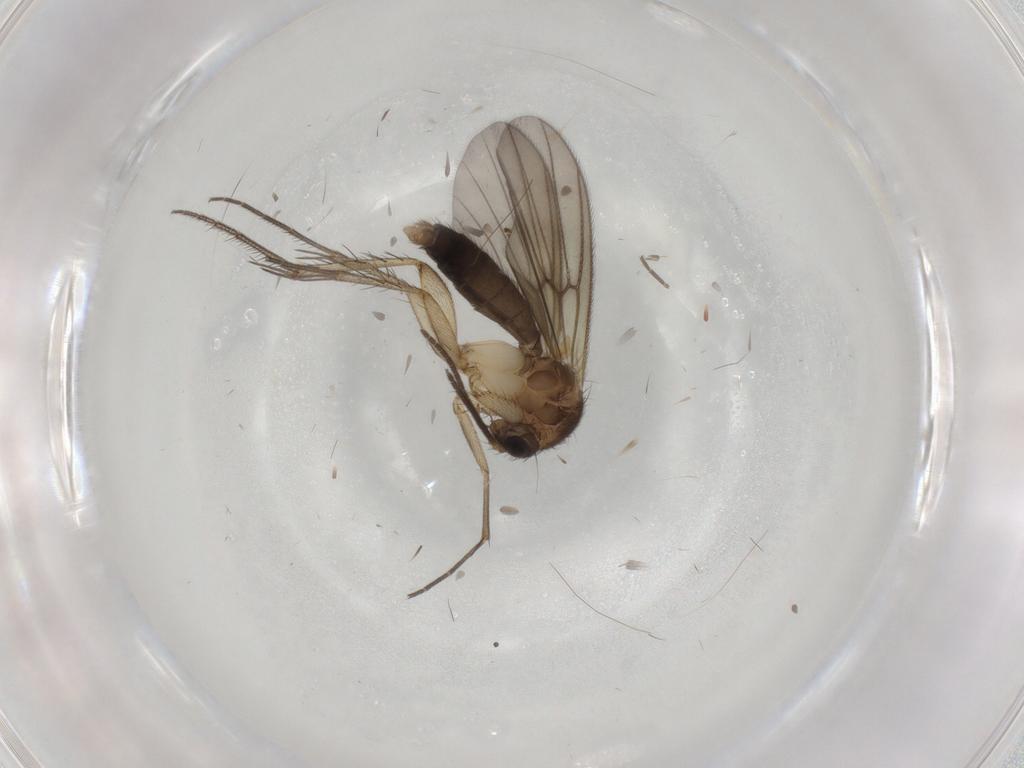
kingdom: Animalia
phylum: Arthropoda
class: Insecta
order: Diptera
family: Mycetophilidae
